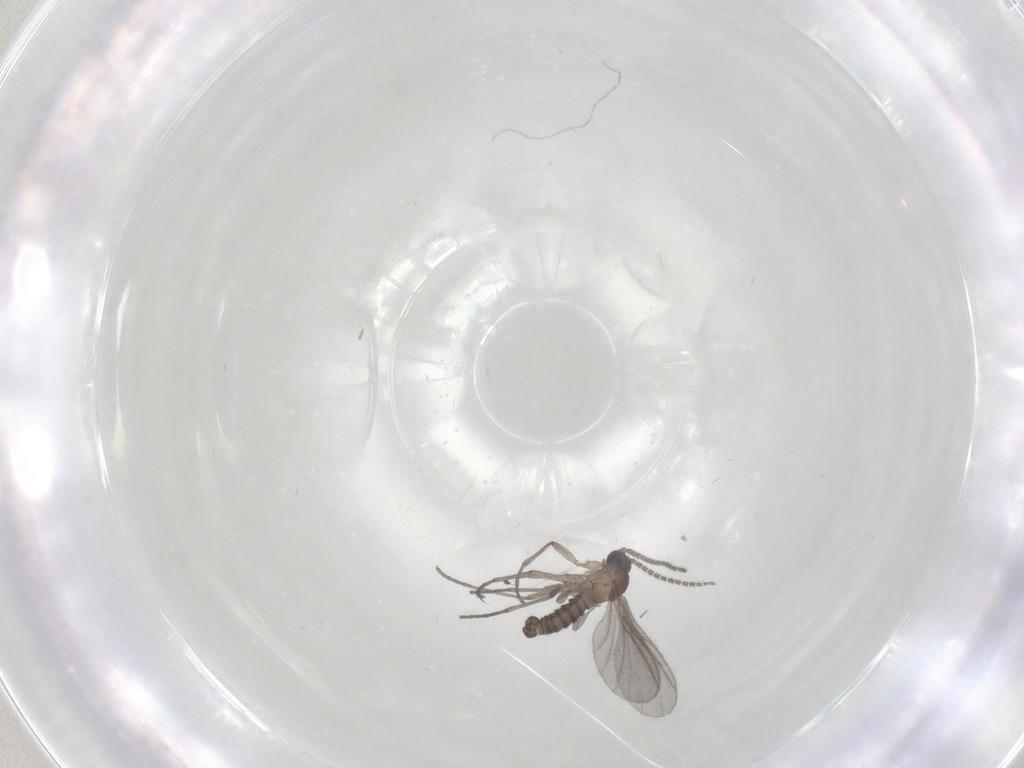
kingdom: Animalia
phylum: Arthropoda
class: Insecta
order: Diptera
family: Sciaridae
